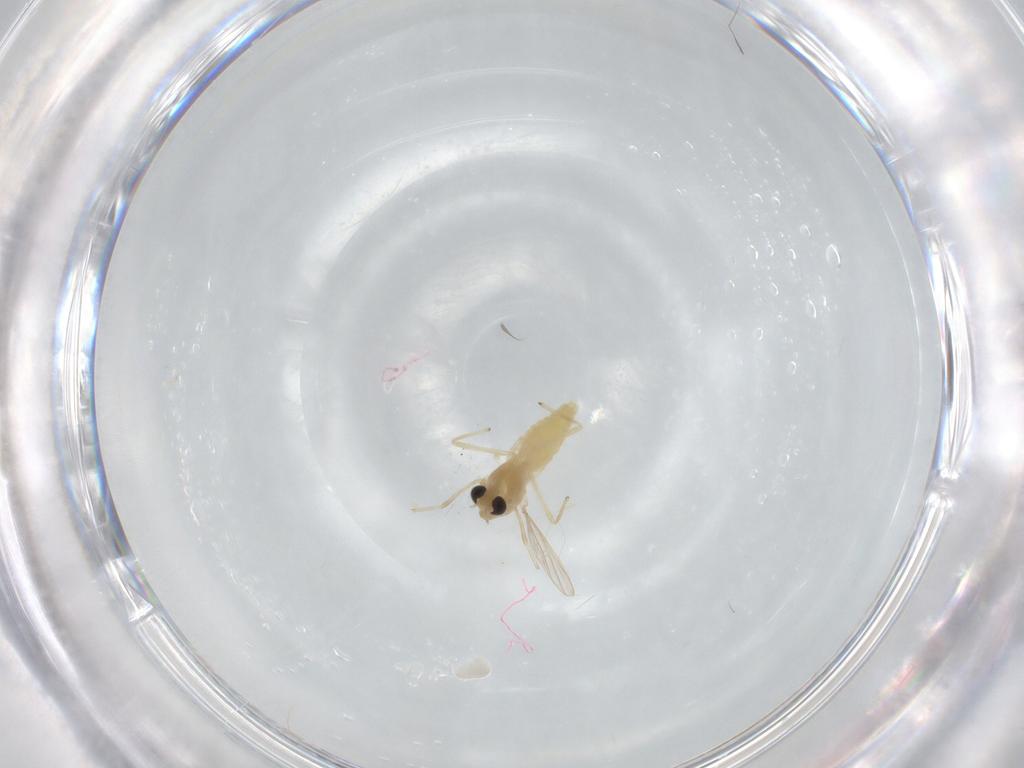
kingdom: Animalia
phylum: Arthropoda
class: Insecta
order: Diptera
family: Chironomidae
